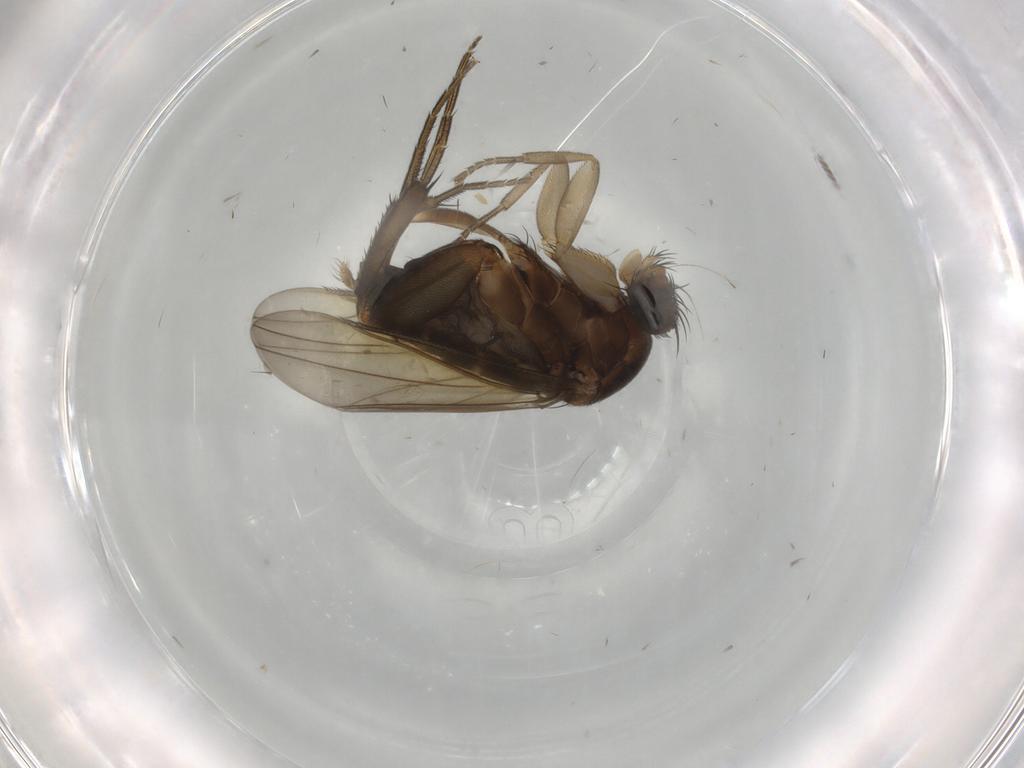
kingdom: Animalia
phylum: Arthropoda
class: Insecta
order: Diptera
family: Phoridae
